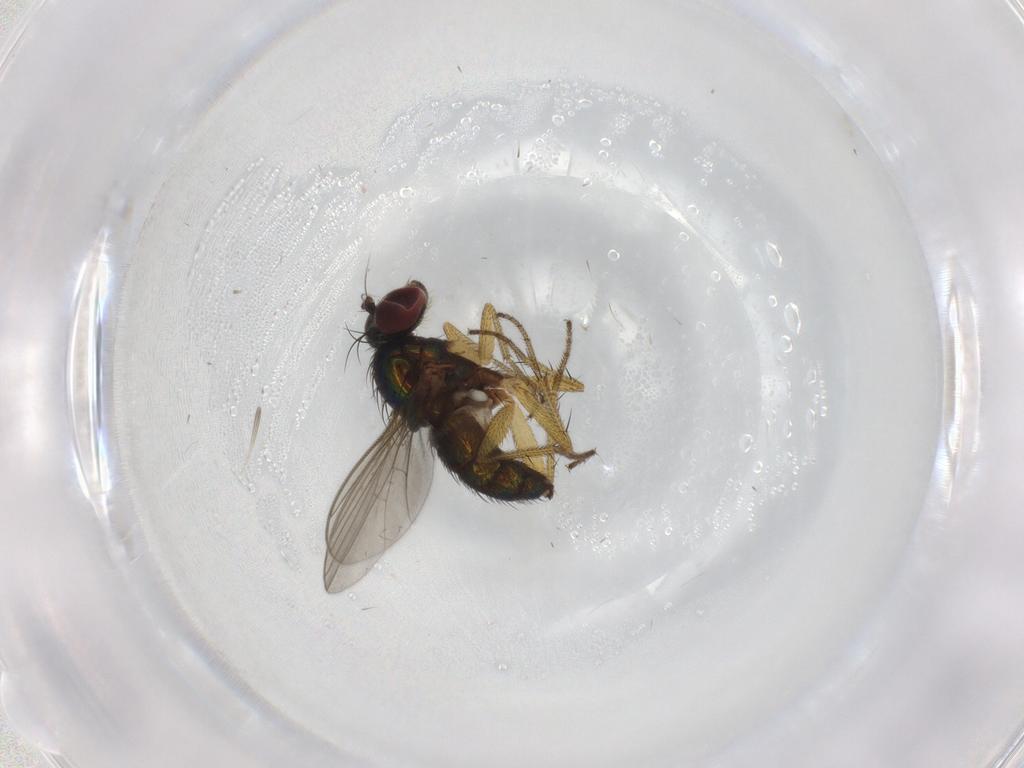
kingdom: Animalia
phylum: Arthropoda
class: Insecta
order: Diptera
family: Chironomidae
